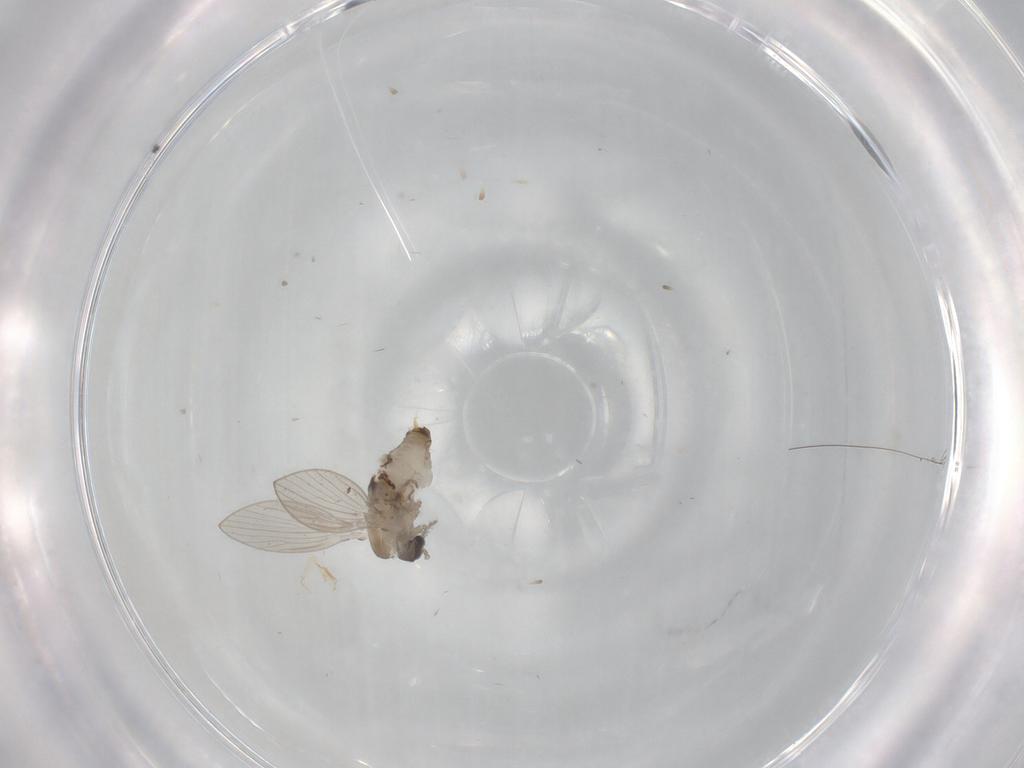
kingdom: Animalia
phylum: Arthropoda
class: Insecta
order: Diptera
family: Psychodidae
